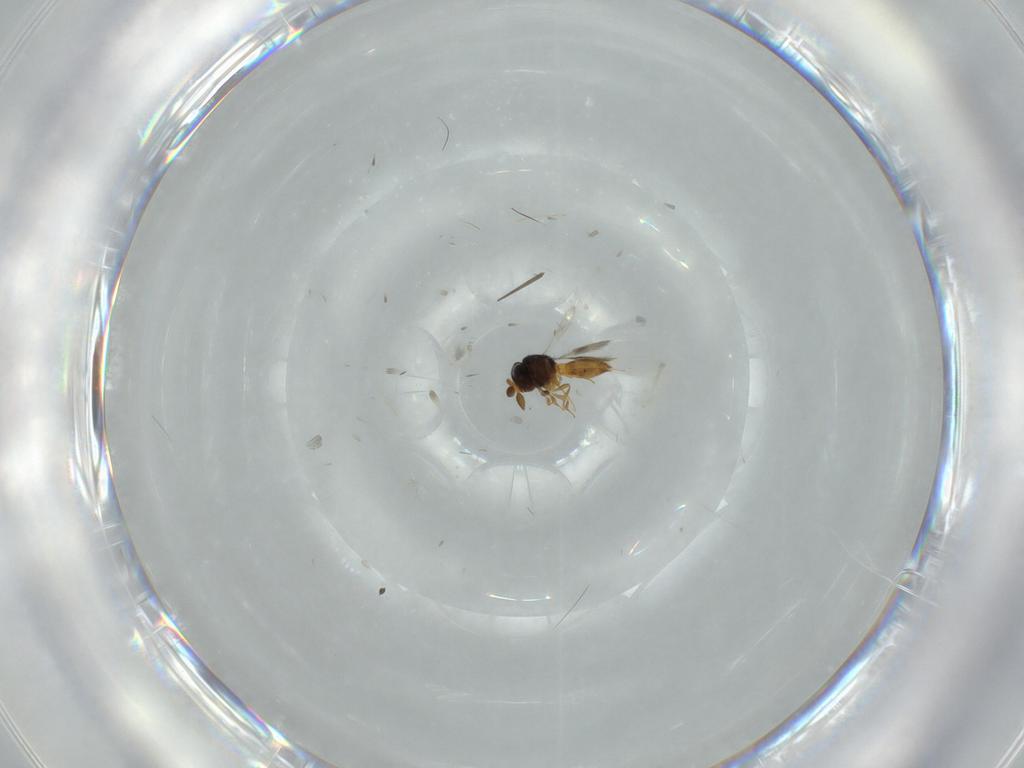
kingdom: Animalia
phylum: Arthropoda
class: Insecta
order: Hymenoptera
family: Scelionidae
